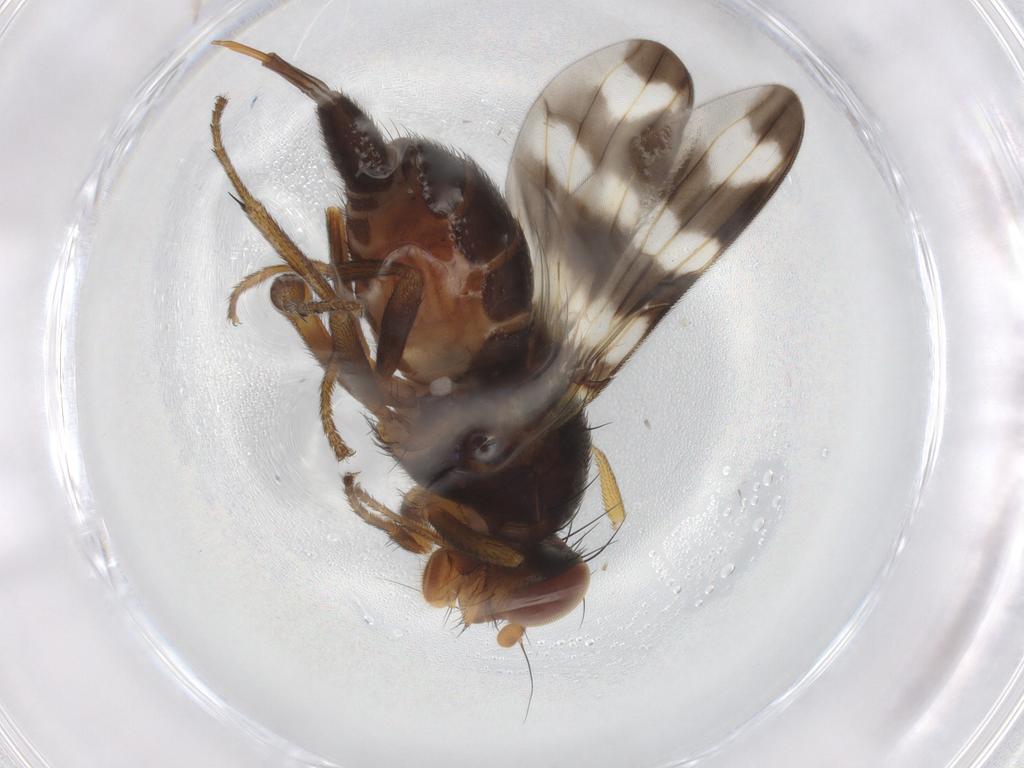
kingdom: Animalia
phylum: Arthropoda
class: Insecta
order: Diptera
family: Dolichopodidae
